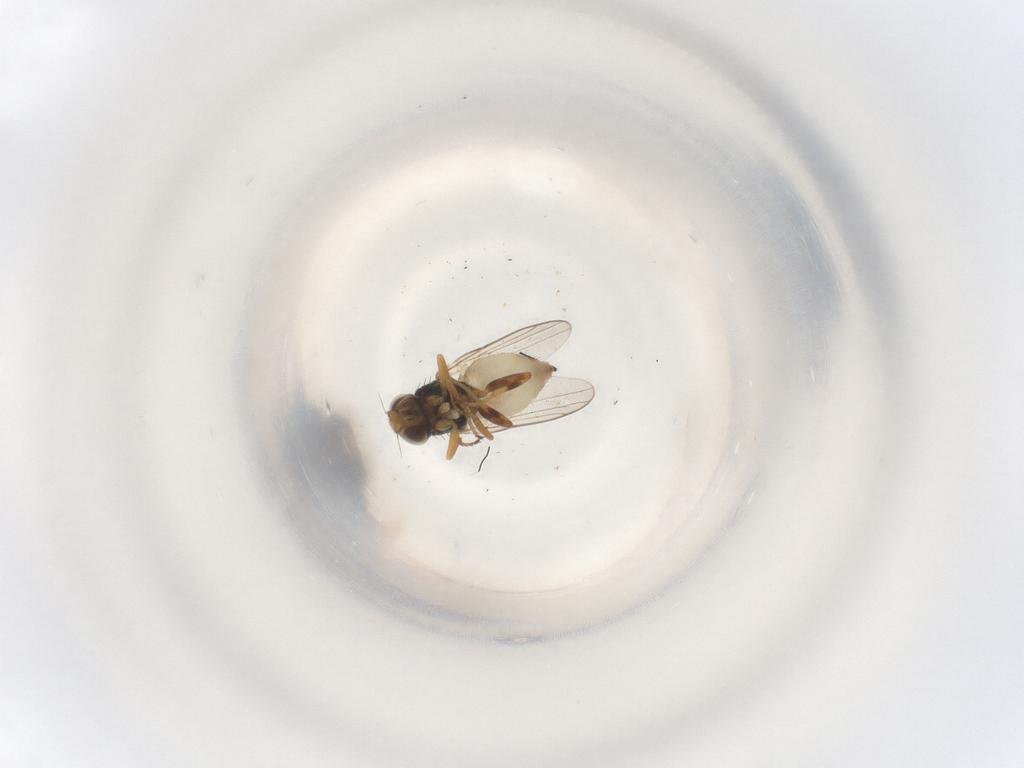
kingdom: Animalia
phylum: Arthropoda
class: Insecta
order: Diptera
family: Chloropidae
